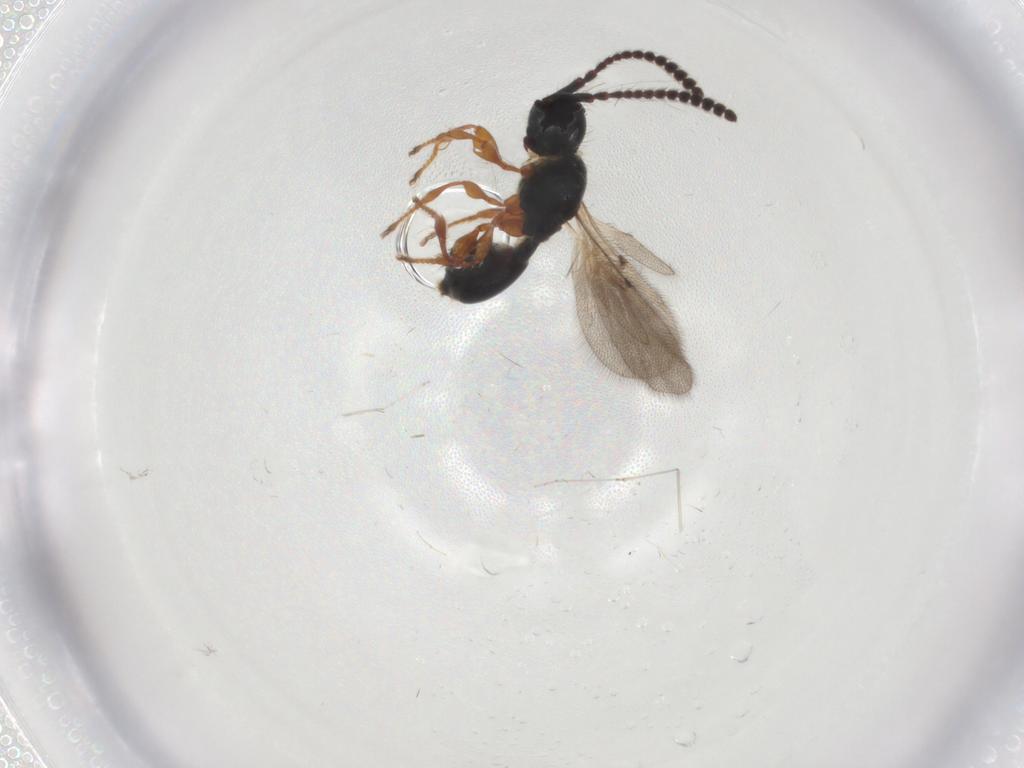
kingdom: Animalia
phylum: Arthropoda
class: Insecta
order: Hymenoptera
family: Diapriidae
